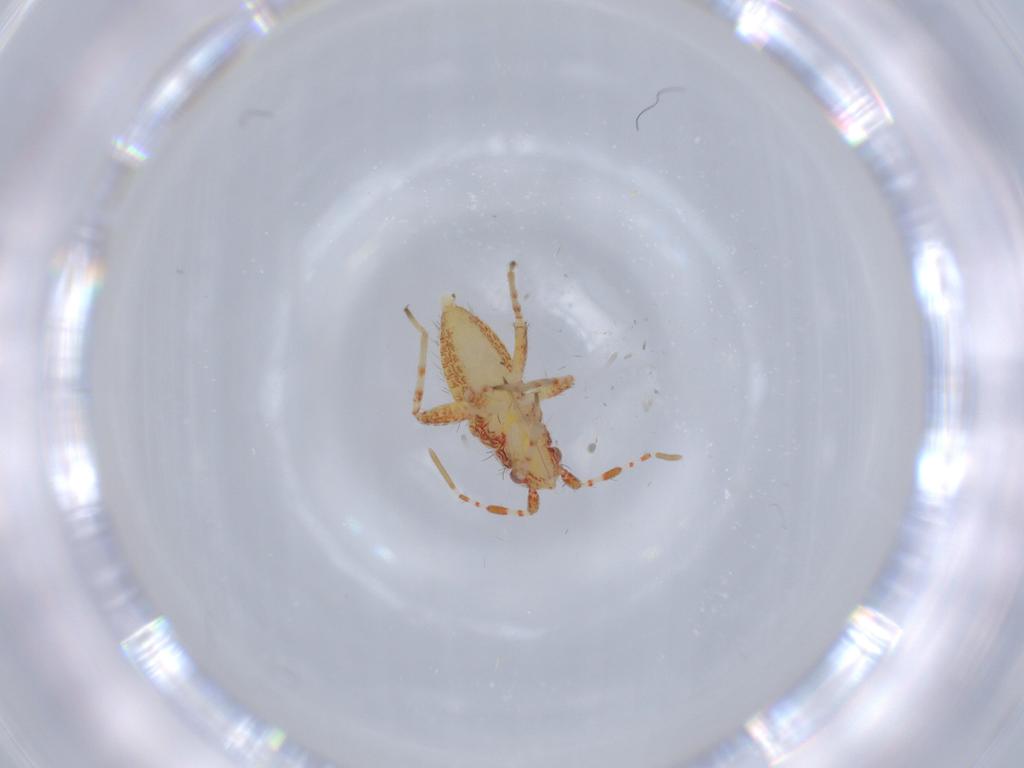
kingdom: Animalia
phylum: Arthropoda
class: Insecta
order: Hemiptera
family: Miridae
